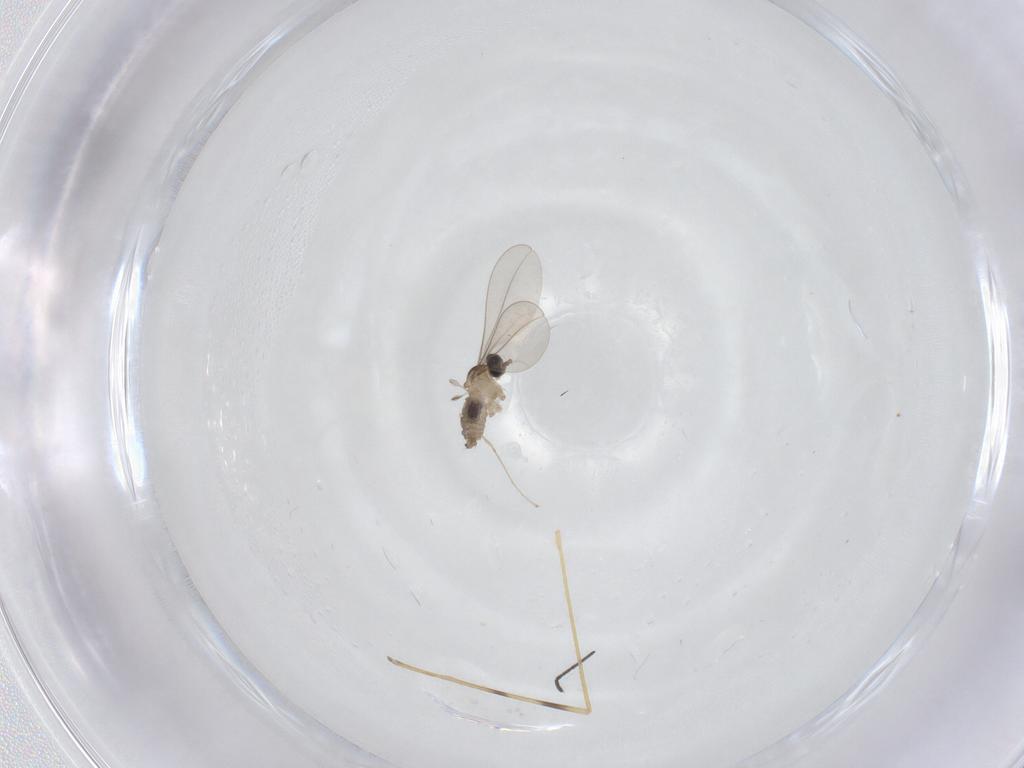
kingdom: Animalia
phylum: Arthropoda
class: Insecta
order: Diptera
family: Limoniidae
